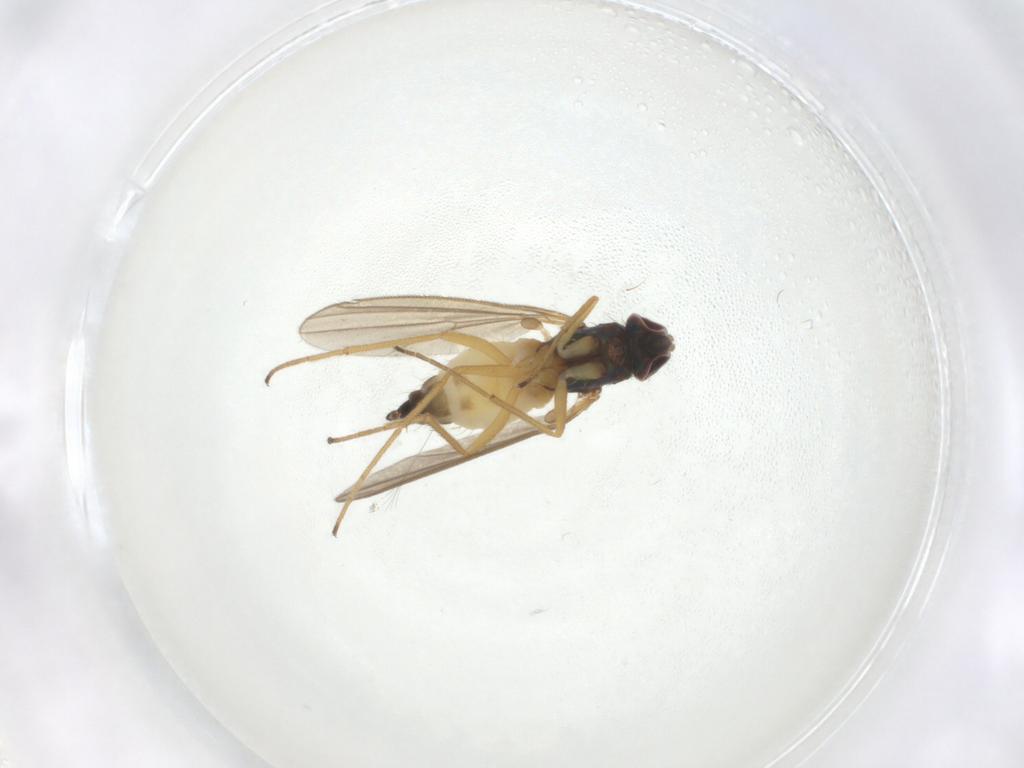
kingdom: Animalia
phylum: Arthropoda
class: Insecta
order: Diptera
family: Dolichopodidae
